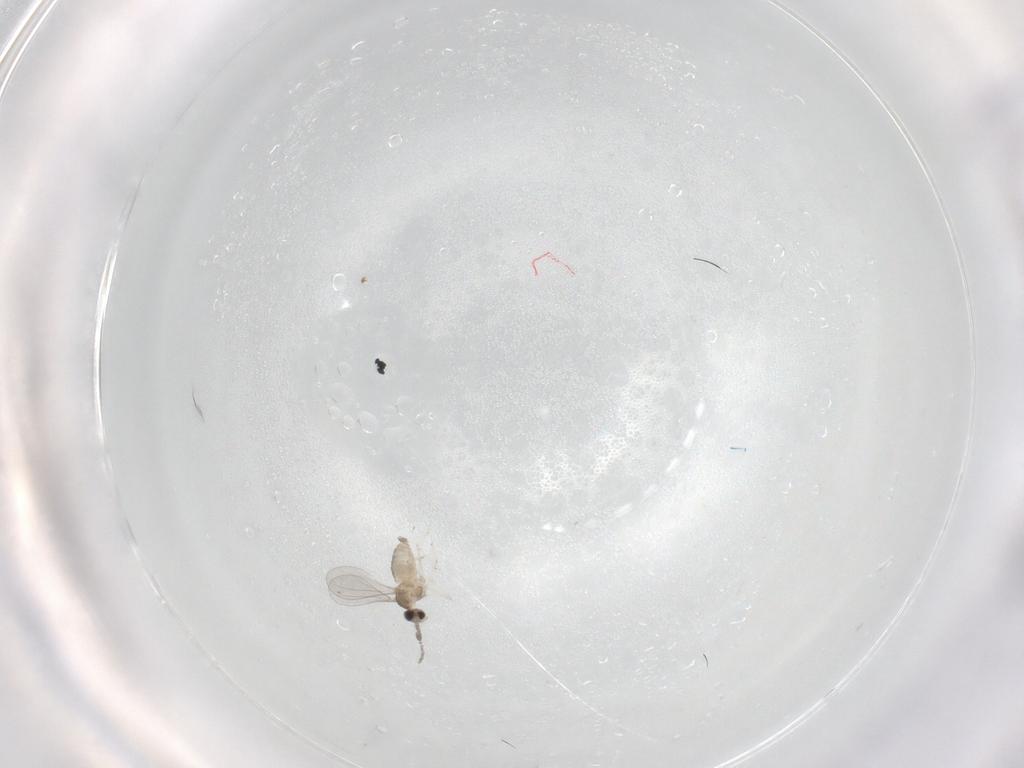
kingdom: Animalia
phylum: Arthropoda
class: Insecta
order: Diptera
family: Cecidomyiidae
